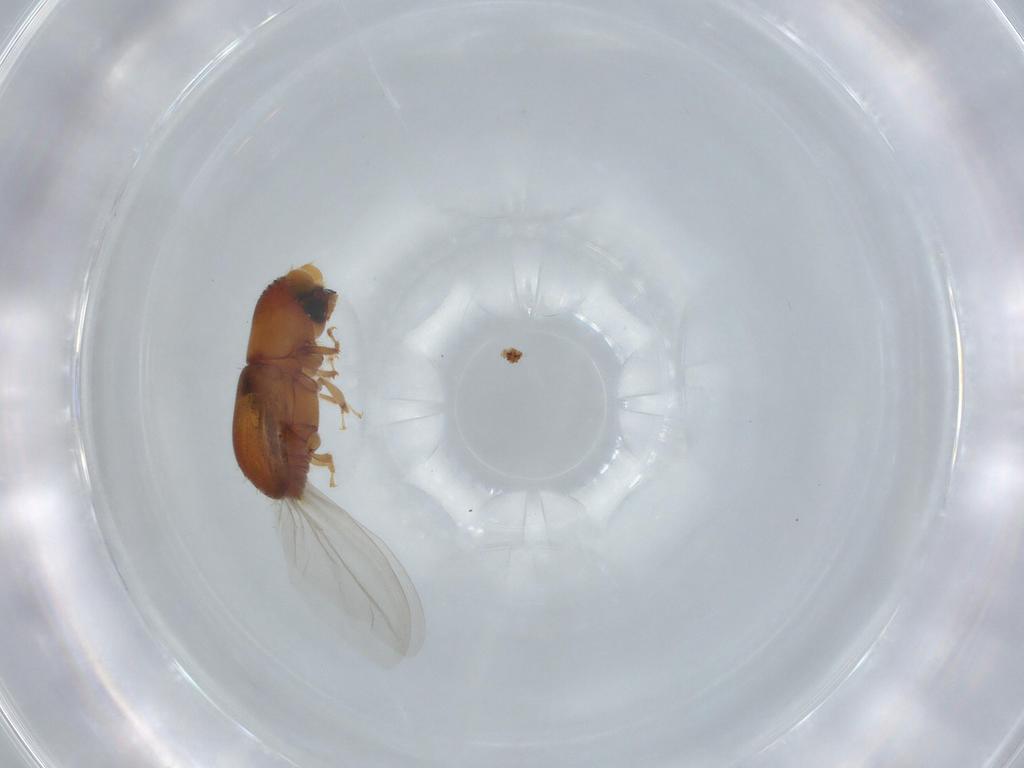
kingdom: Animalia
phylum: Arthropoda
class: Insecta
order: Coleoptera
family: Curculionidae
